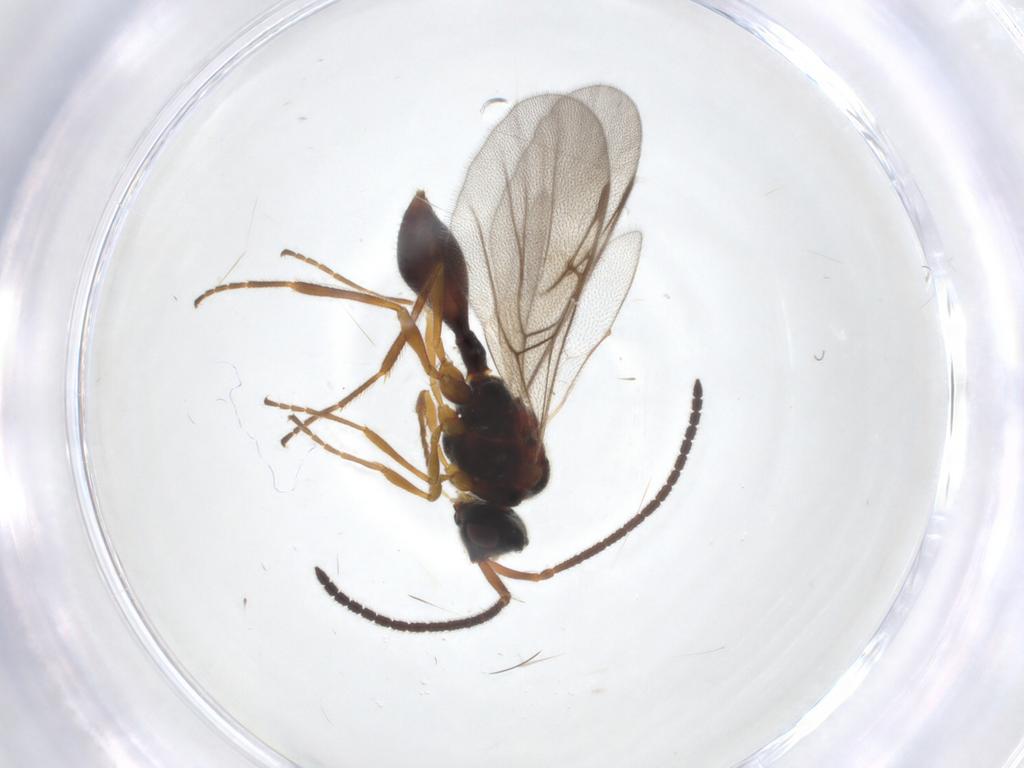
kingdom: Animalia
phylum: Arthropoda
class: Insecta
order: Hymenoptera
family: Diapriidae
